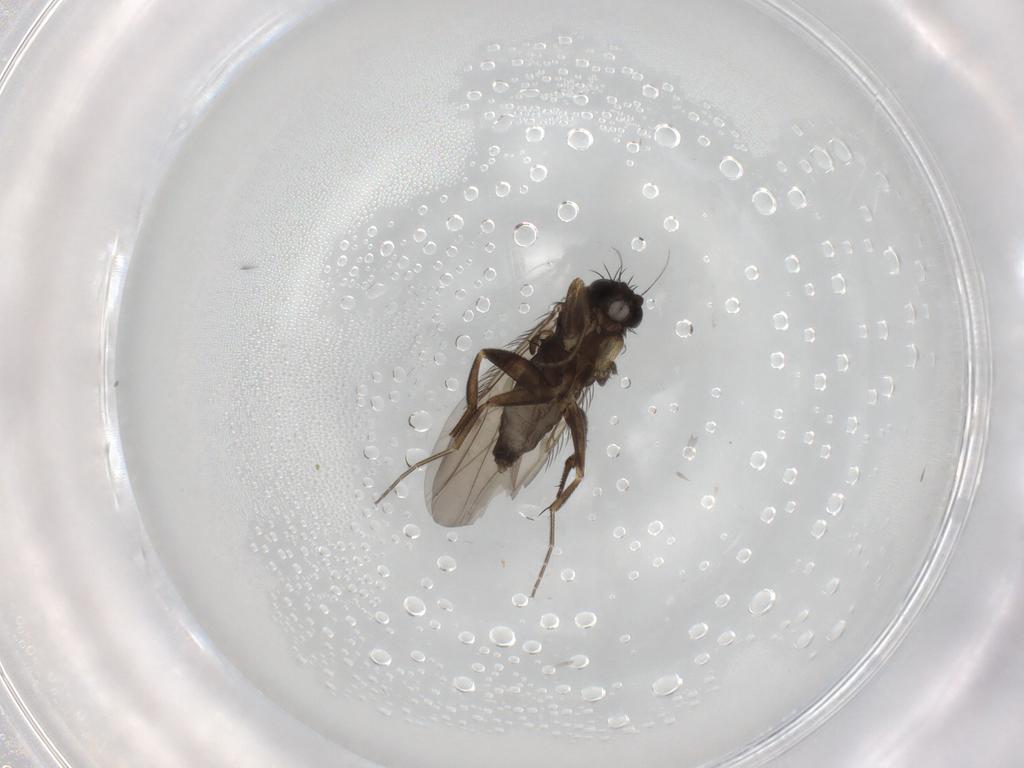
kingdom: Animalia
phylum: Arthropoda
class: Insecta
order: Diptera
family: Phoridae
